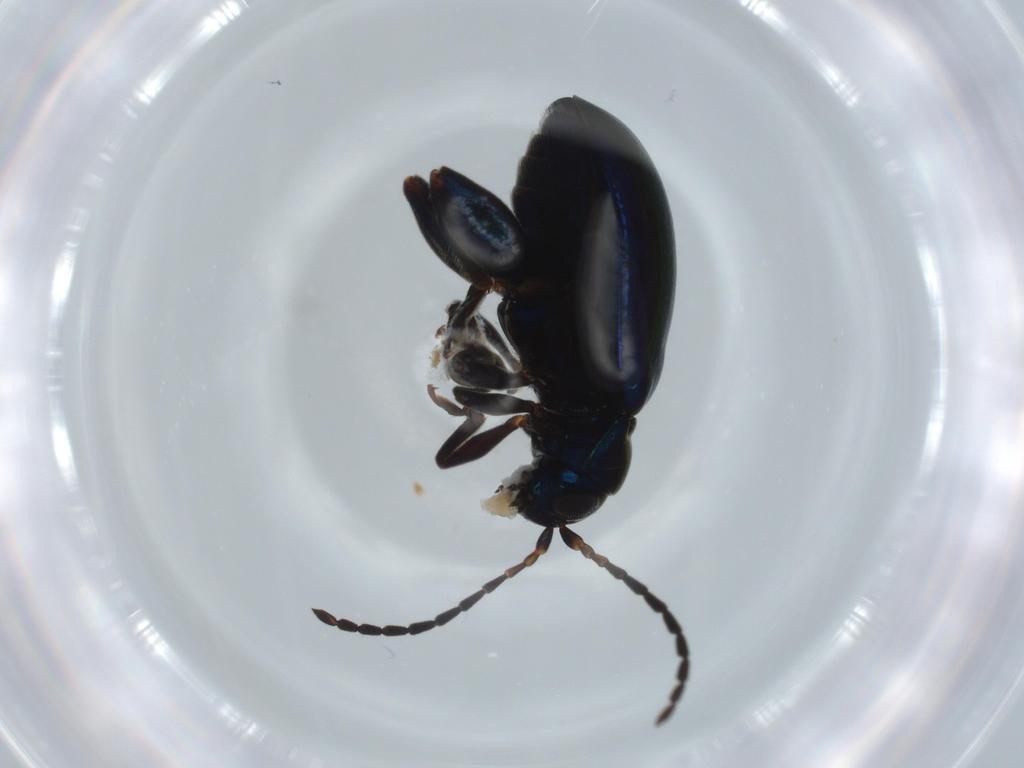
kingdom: Animalia
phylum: Arthropoda
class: Insecta
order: Coleoptera
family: Chrysomelidae
